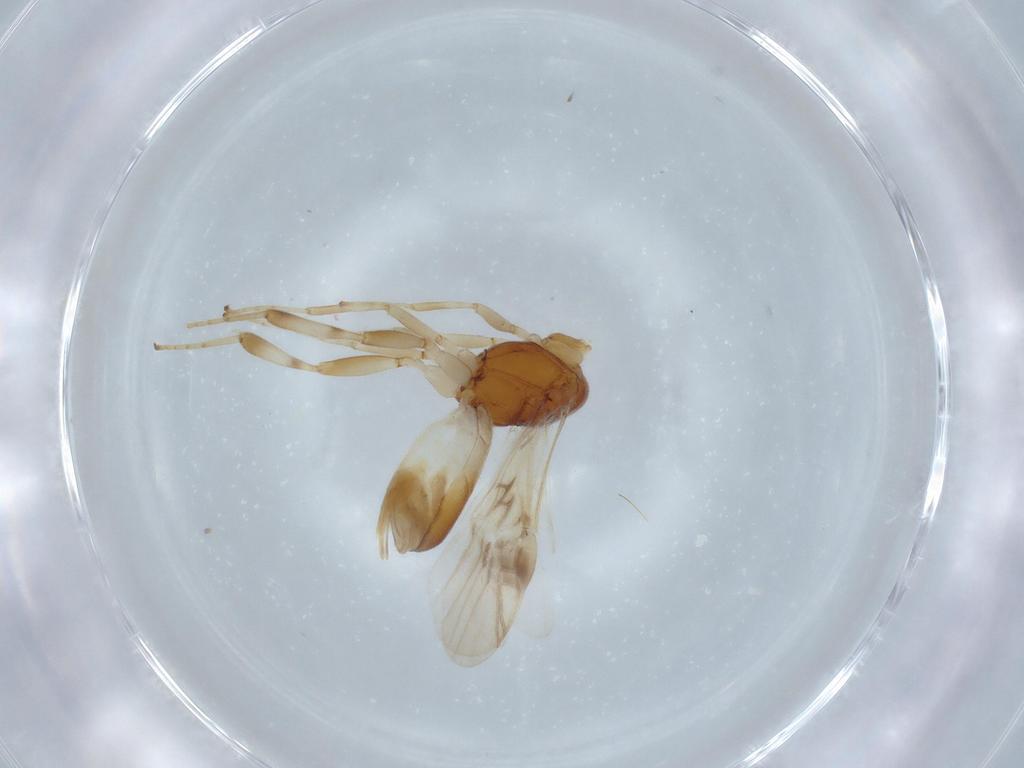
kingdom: Animalia
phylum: Arthropoda
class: Insecta
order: Hymenoptera
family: Braconidae
